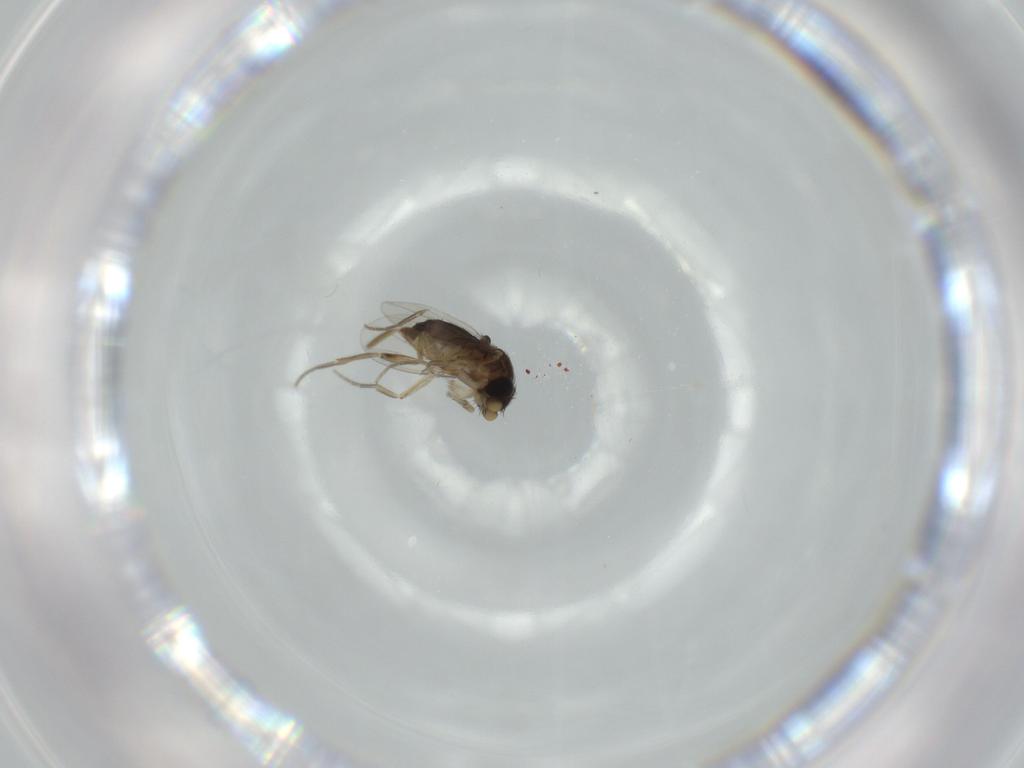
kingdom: Animalia
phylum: Arthropoda
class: Insecta
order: Diptera
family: Phoridae
